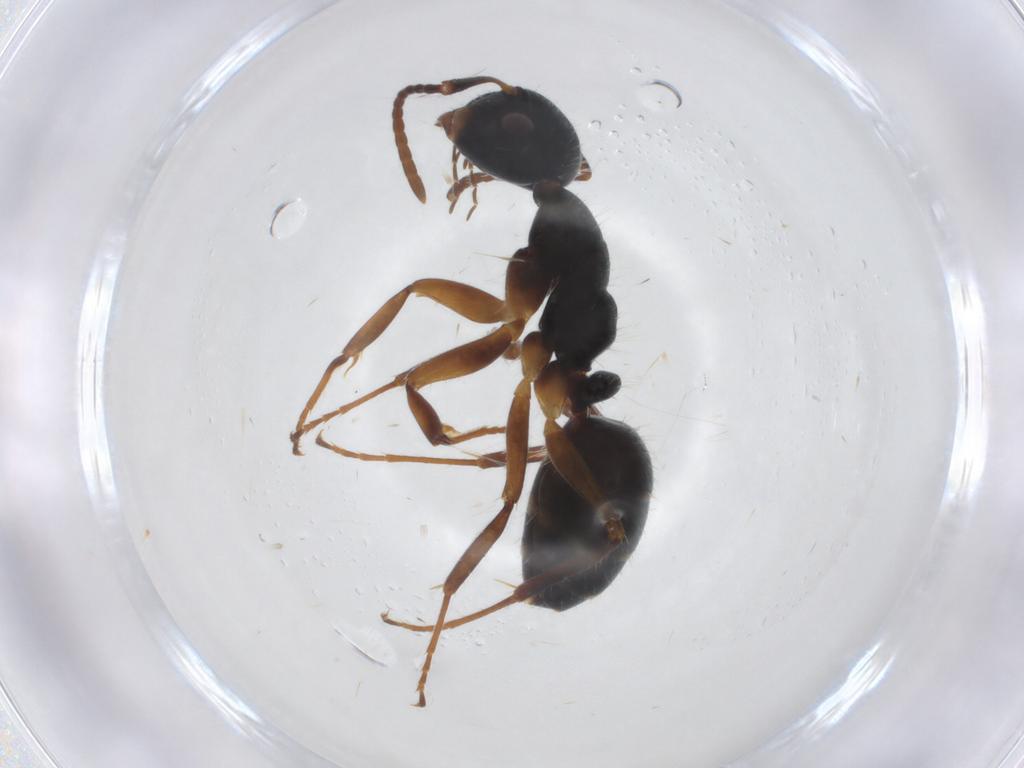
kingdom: Animalia
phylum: Arthropoda
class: Insecta
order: Hymenoptera
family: Formicidae
